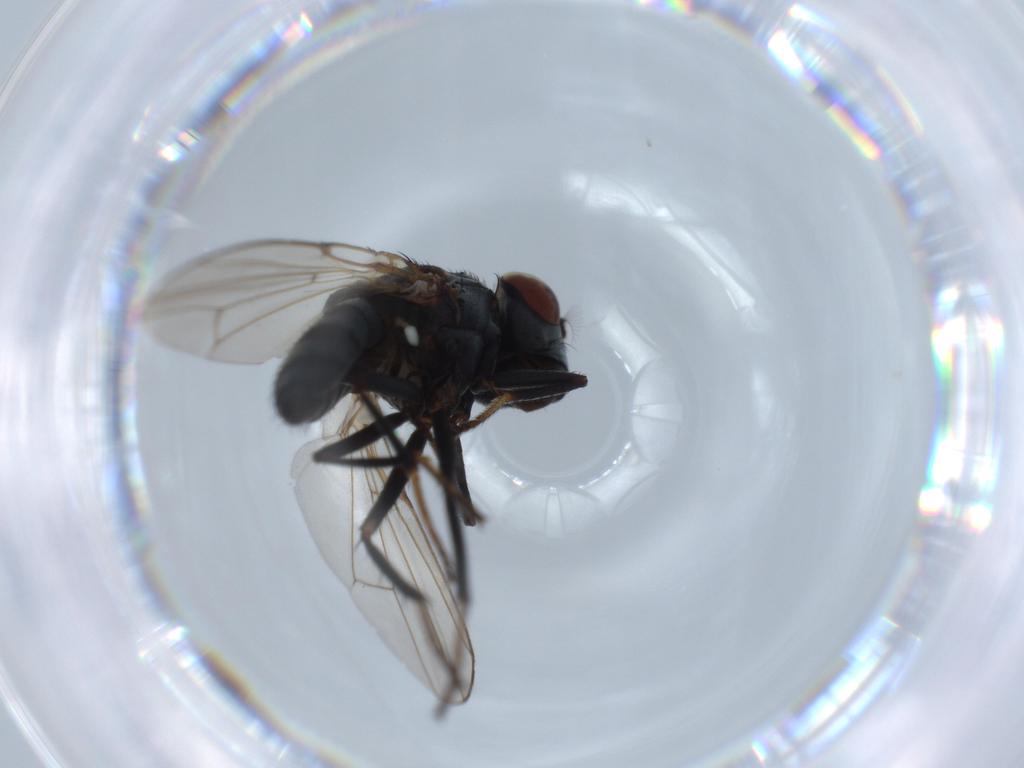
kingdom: Animalia
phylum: Arthropoda
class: Insecta
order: Diptera
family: Ephydridae
